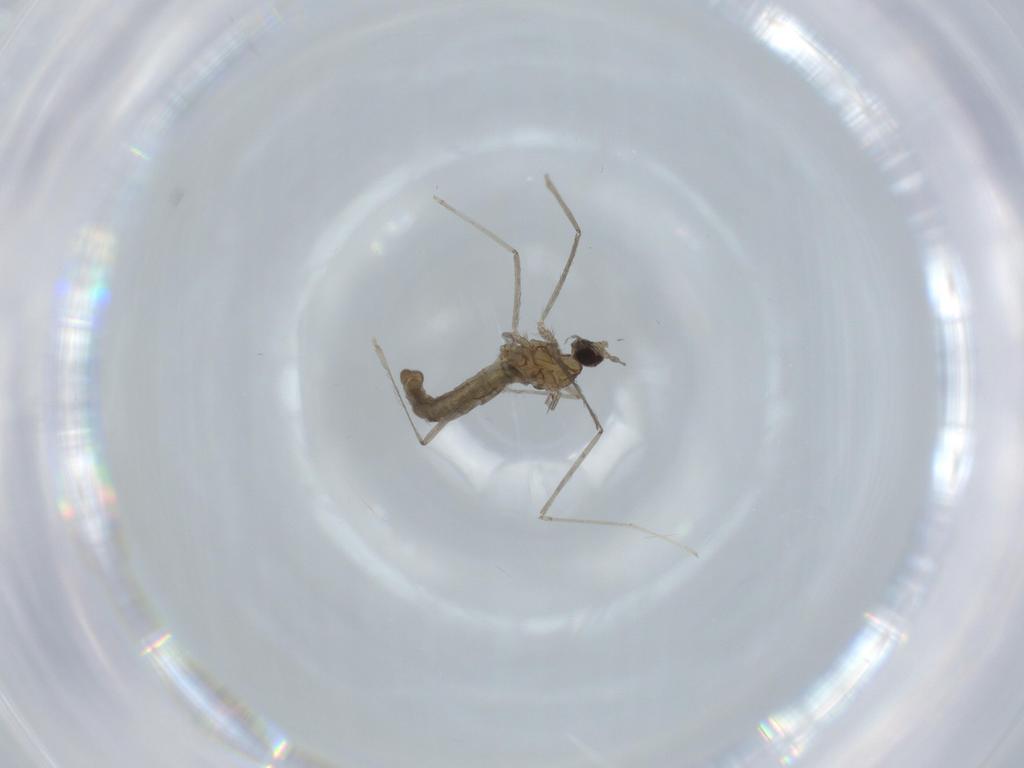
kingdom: Animalia
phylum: Arthropoda
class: Insecta
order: Diptera
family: Cecidomyiidae
